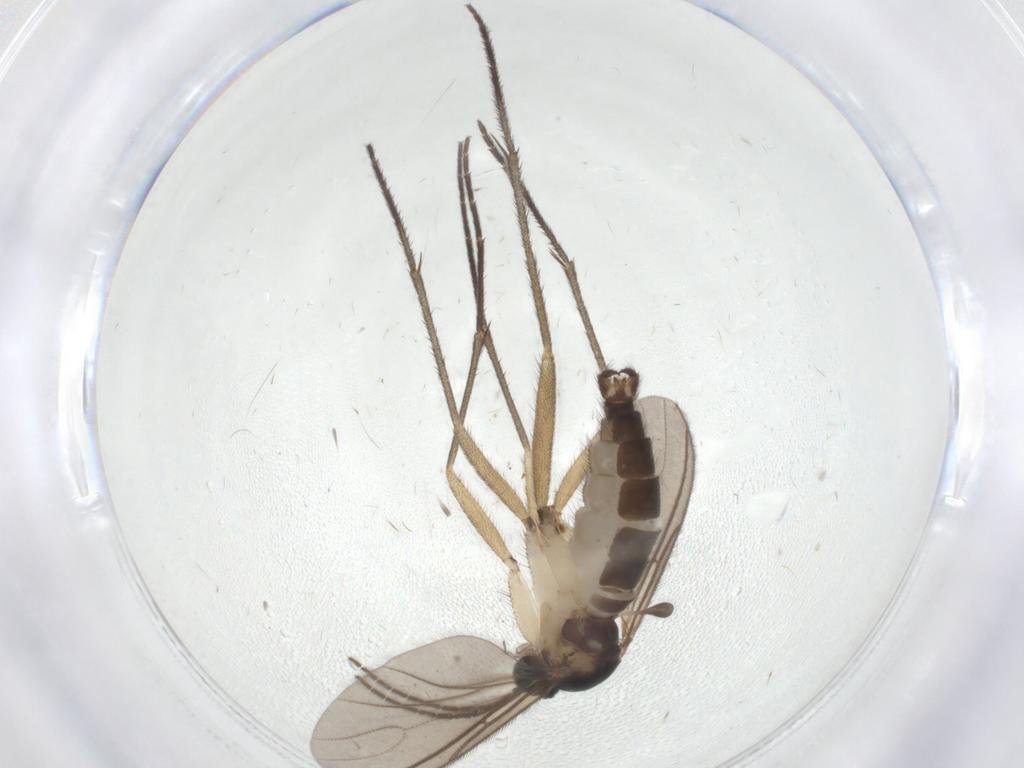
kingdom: Animalia
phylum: Arthropoda
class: Insecta
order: Diptera
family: Sciaridae
